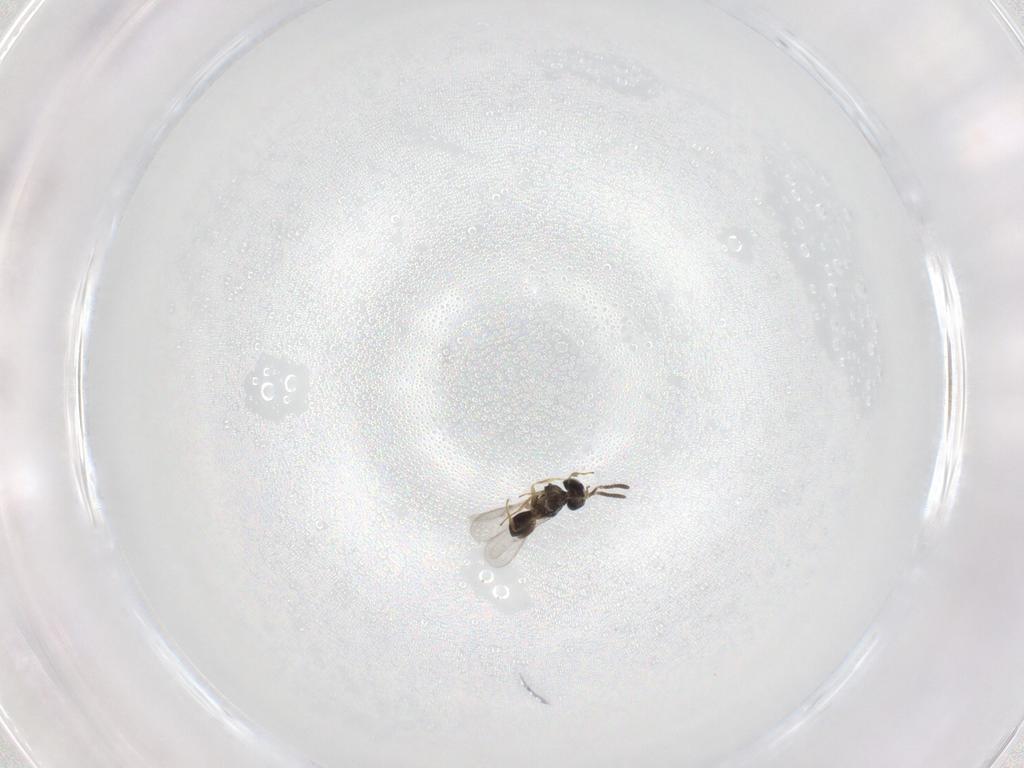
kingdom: Animalia
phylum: Arthropoda
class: Insecta
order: Hymenoptera
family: Scelionidae
